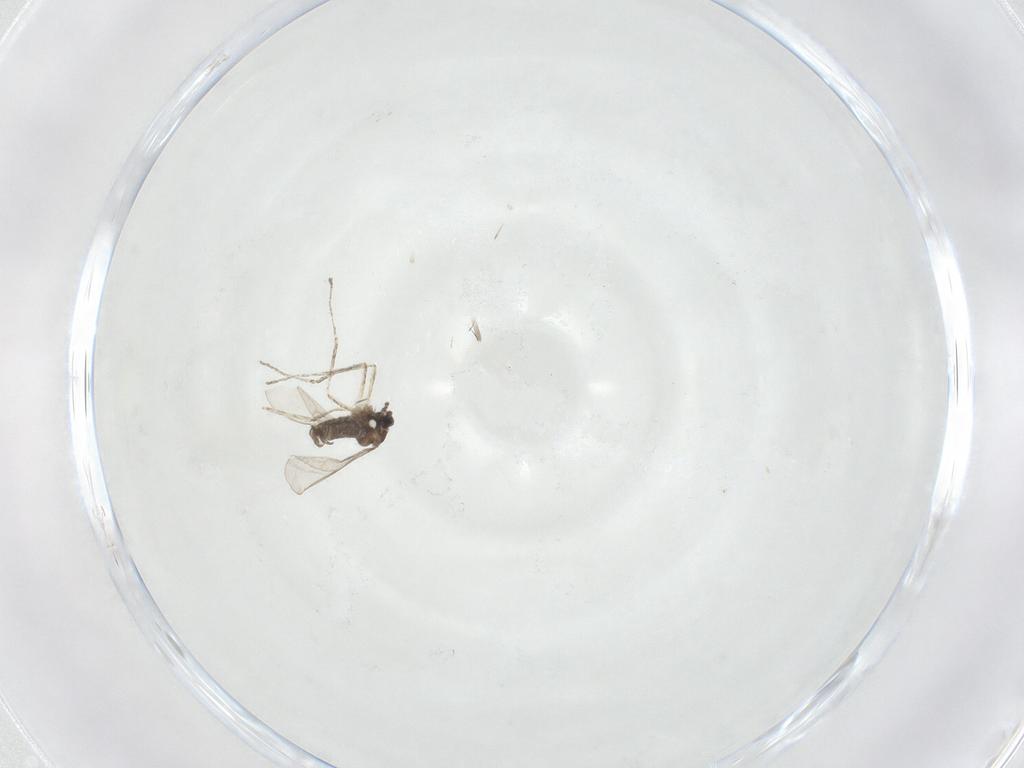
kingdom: Animalia
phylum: Arthropoda
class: Insecta
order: Diptera
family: Cecidomyiidae
